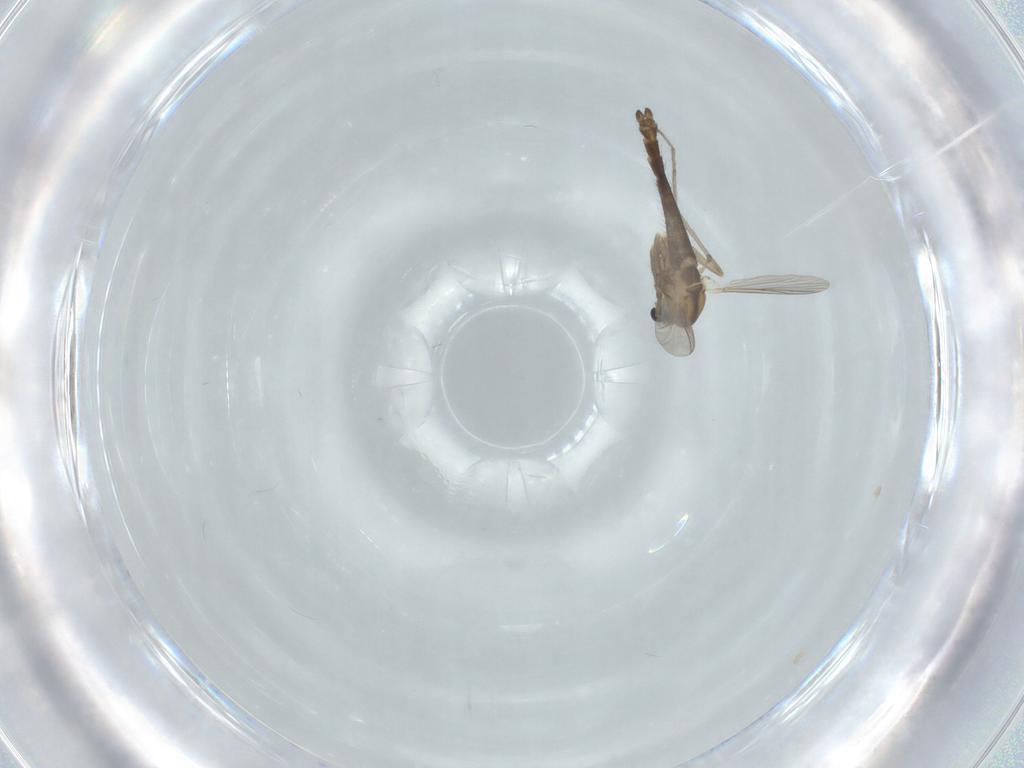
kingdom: Animalia
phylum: Arthropoda
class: Insecta
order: Diptera
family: Chironomidae
